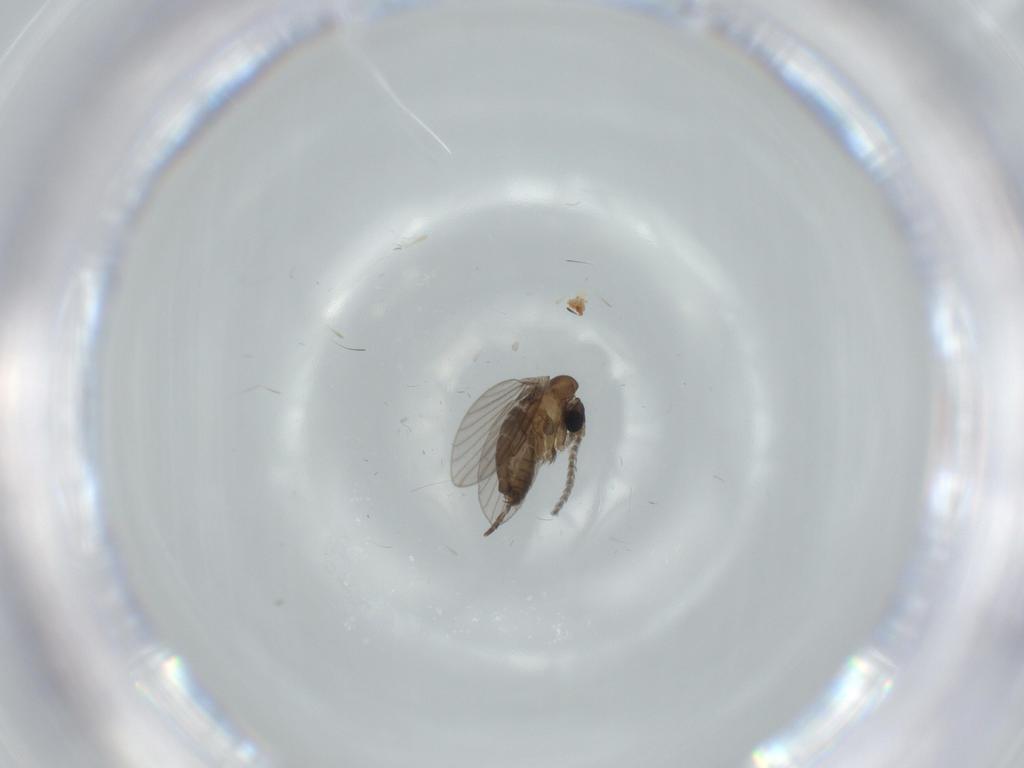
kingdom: Animalia
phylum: Arthropoda
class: Insecta
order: Diptera
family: Psychodidae
